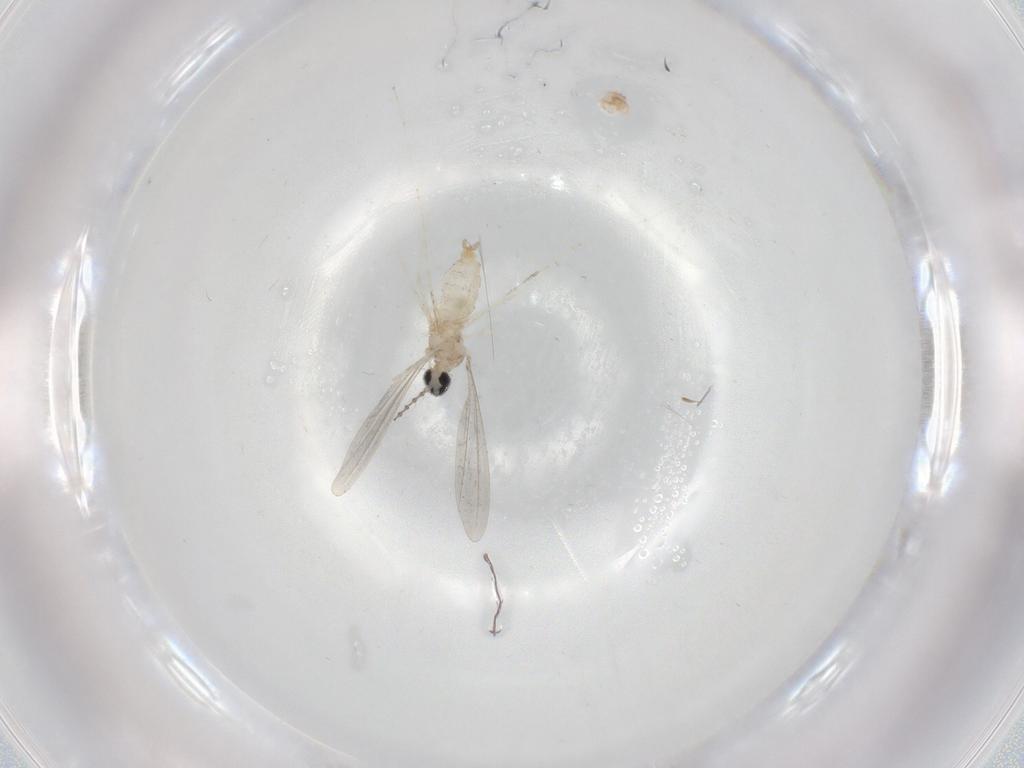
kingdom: Animalia
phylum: Arthropoda
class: Insecta
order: Diptera
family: Cecidomyiidae
